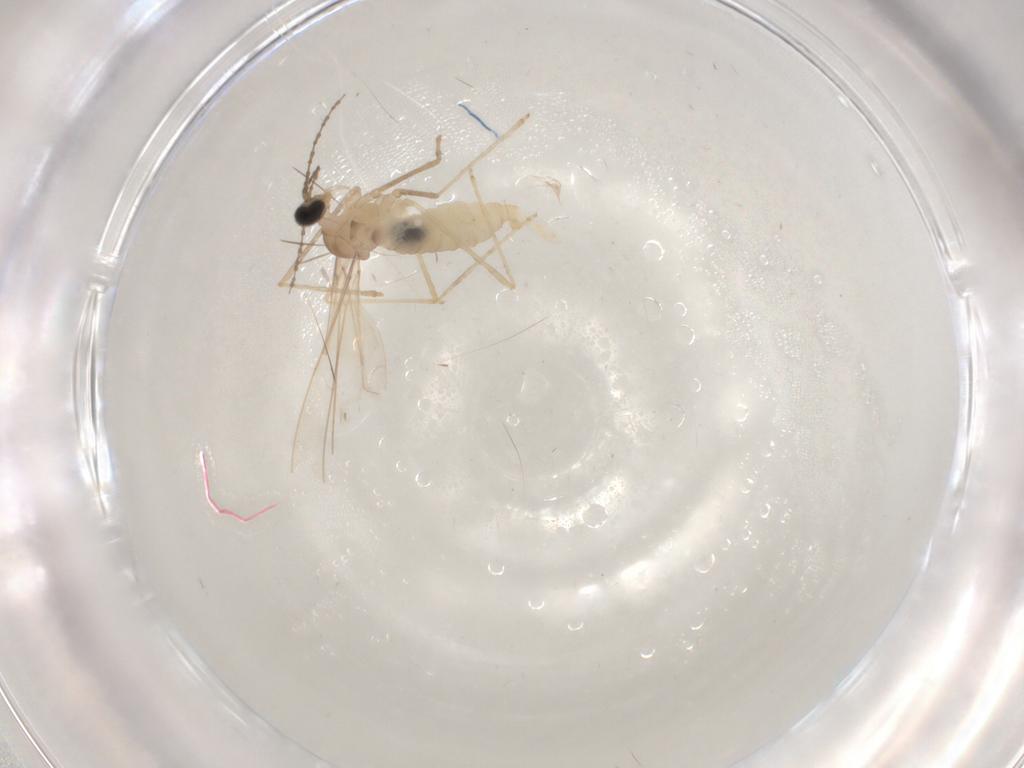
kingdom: Animalia
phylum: Arthropoda
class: Insecta
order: Diptera
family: Cecidomyiidae
